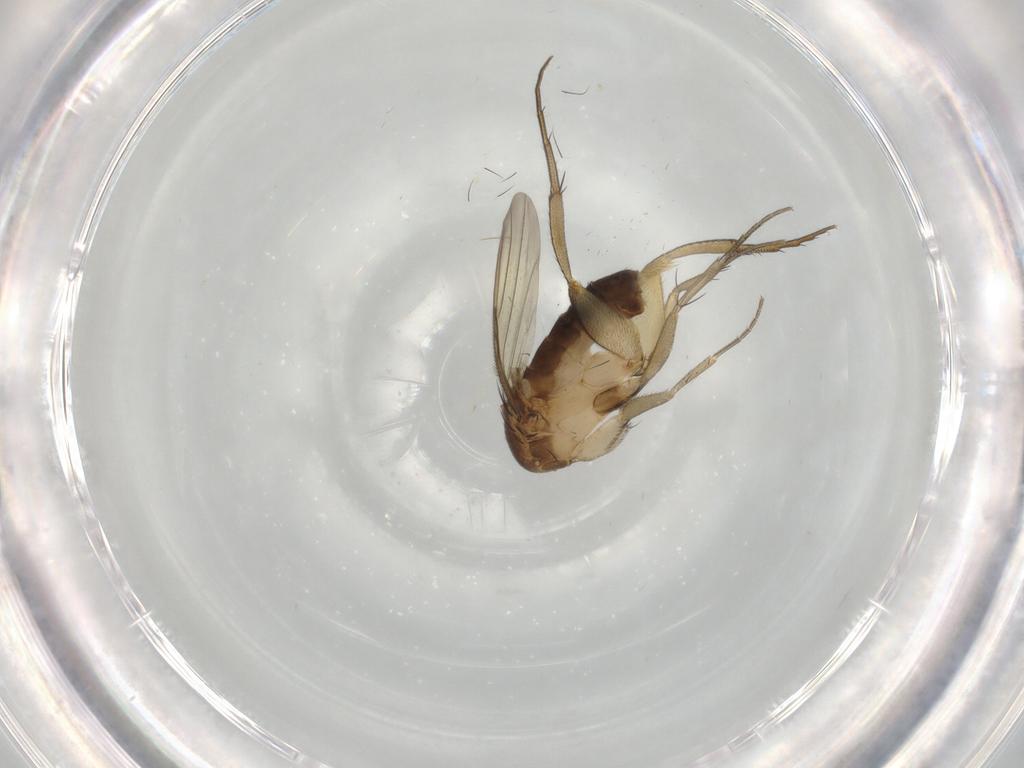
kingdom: Animalia
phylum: Arthropoda
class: Insecta
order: Diptera
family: Phoridae
